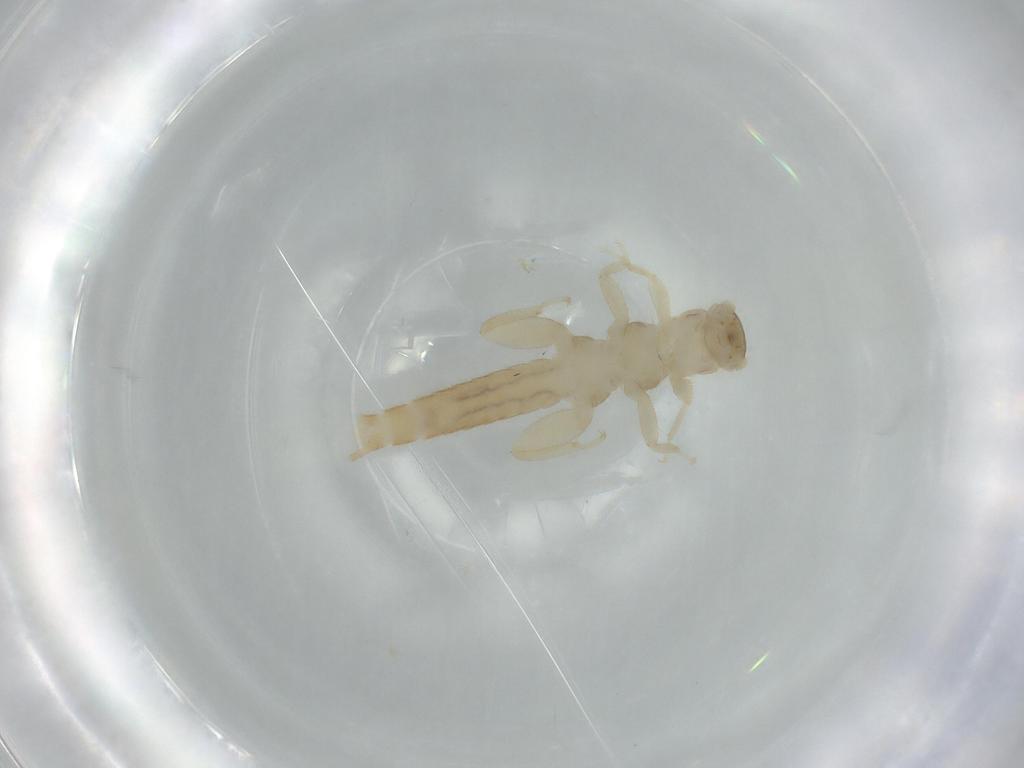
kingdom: Animalia
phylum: Arthropoda
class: Insecta
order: Plecoptera
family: Leuctridae
